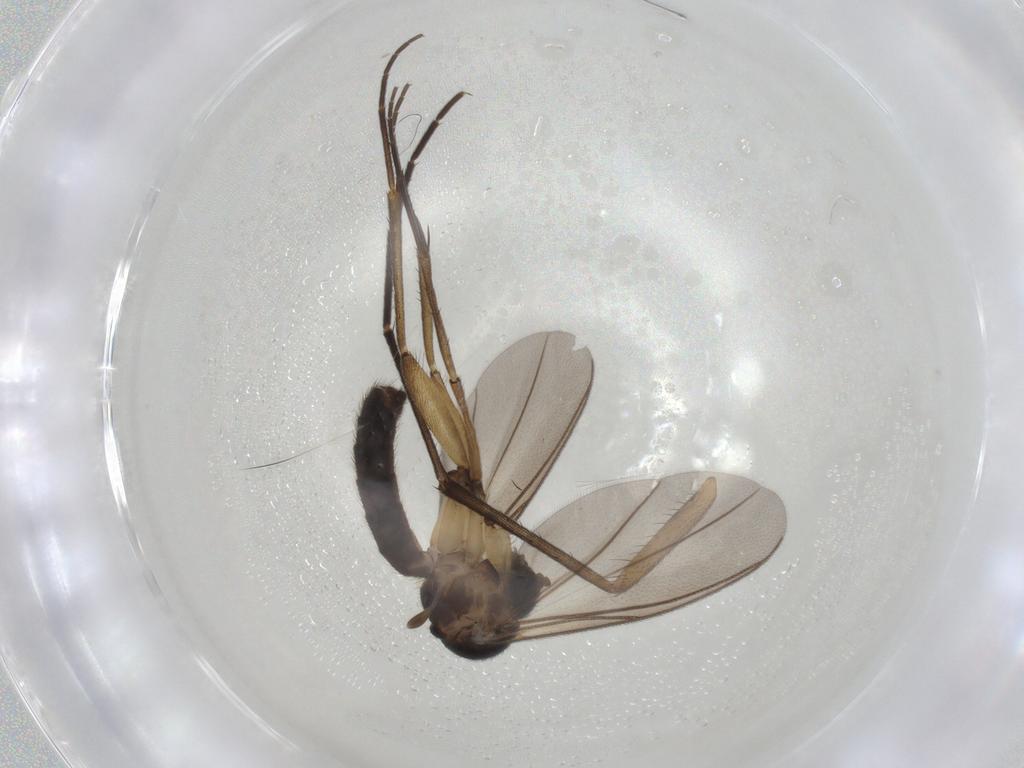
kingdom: Animalia
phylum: Arthropoda
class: Insecta
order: Diptera
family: Mycetophilidae
